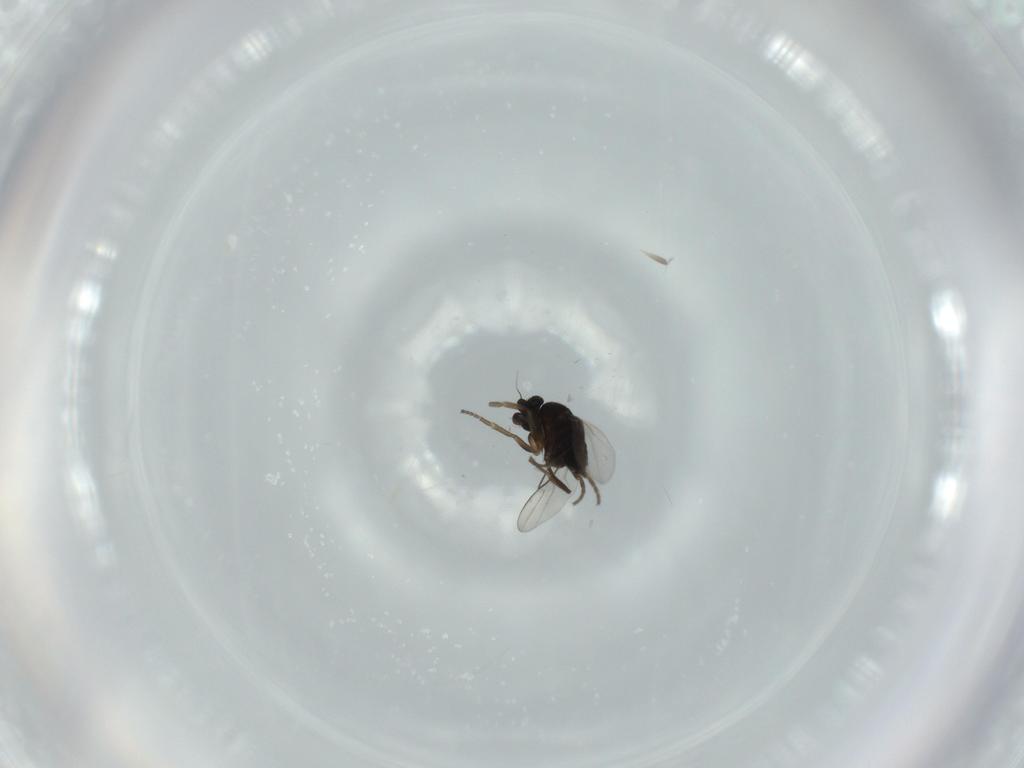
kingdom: Animalia
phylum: Arthropoda
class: Insecta
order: Diptera
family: Phoridae
